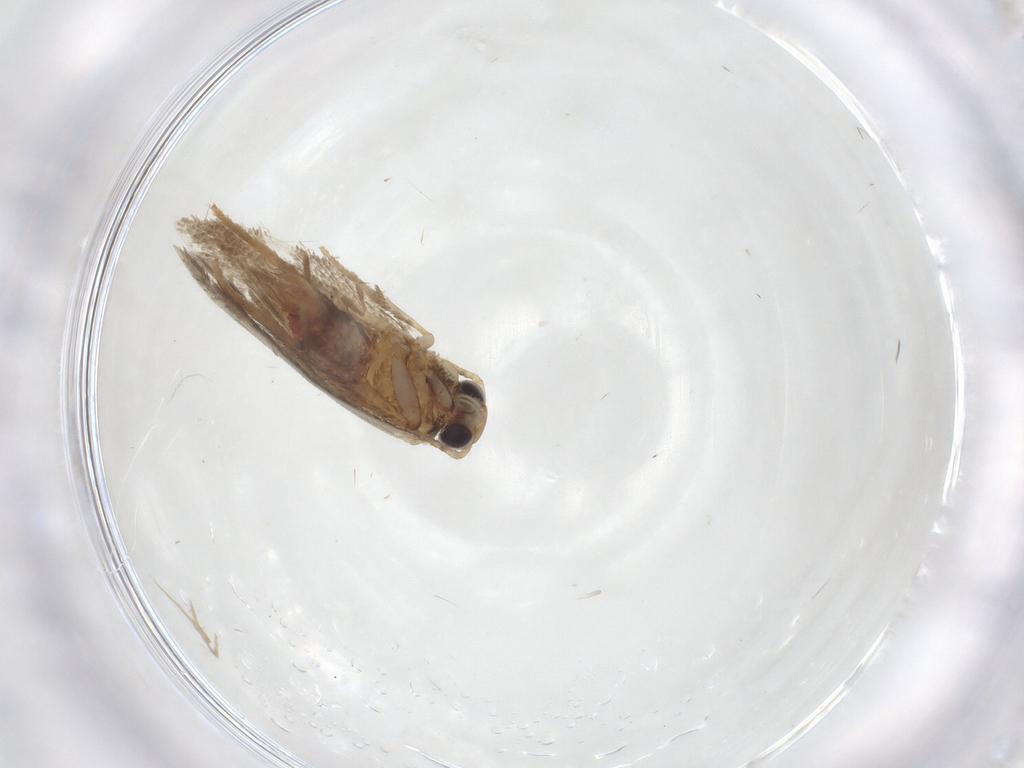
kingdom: Animalia
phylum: Arthropoda
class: Insecta
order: Lepidoptera
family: Gelechiidae
